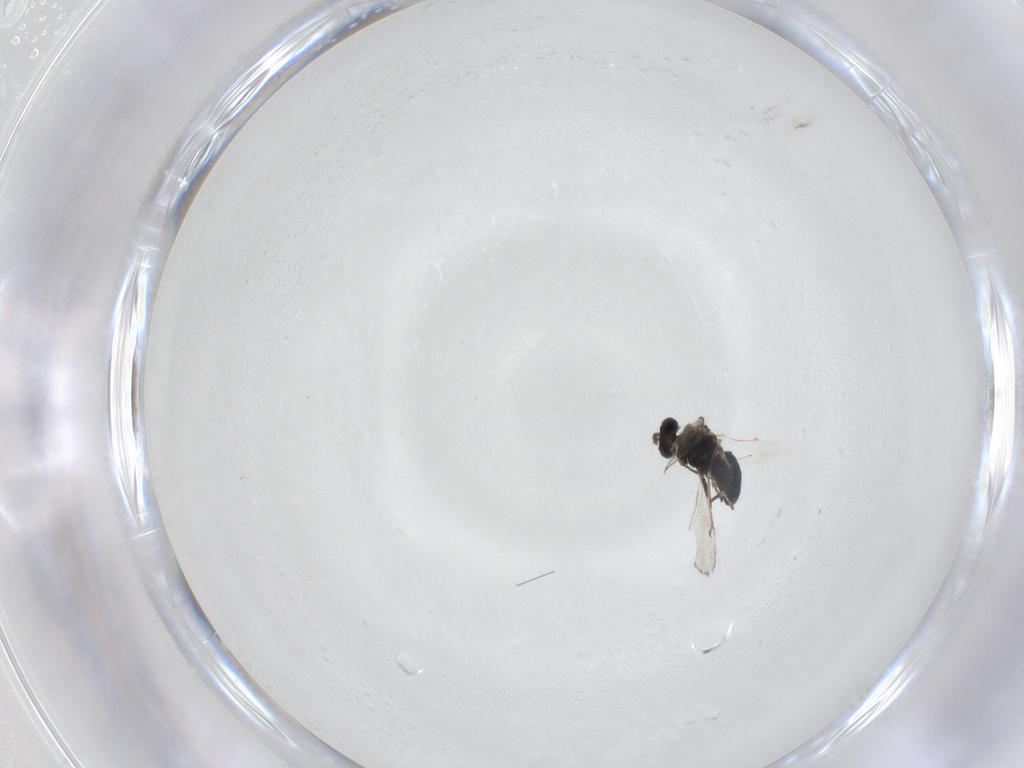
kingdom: Animalia
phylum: Arthropoda
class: Insecta
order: Hymenoptera
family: Eulophidae
